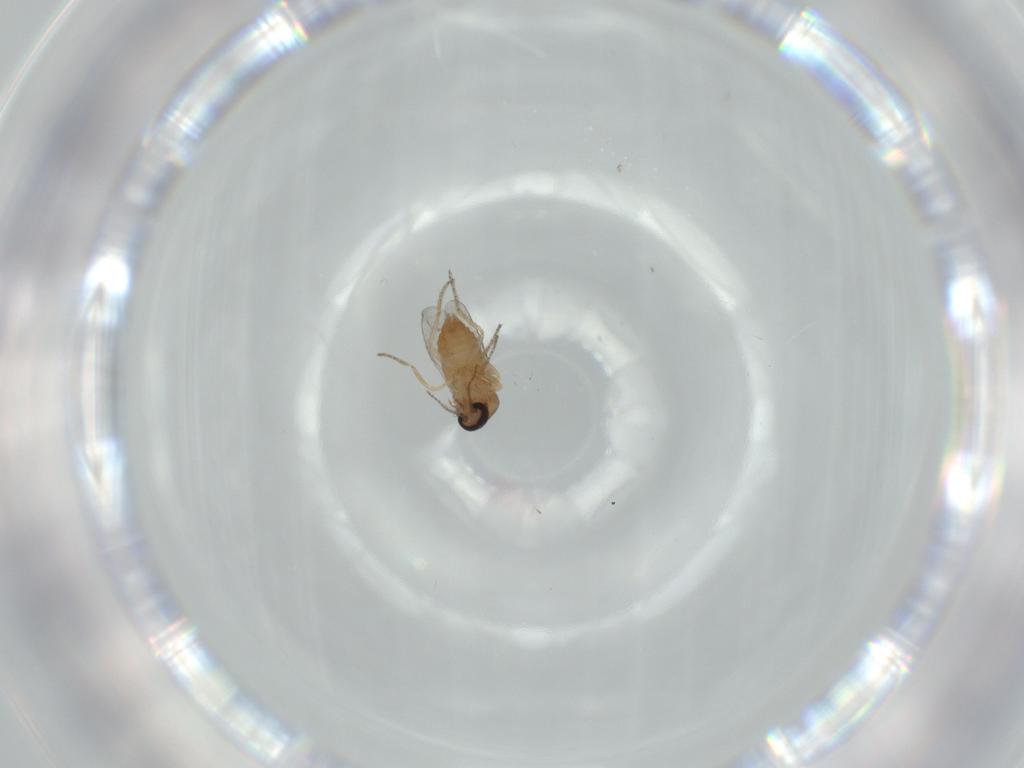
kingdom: Animalia
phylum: Arthropoda
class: Insecta
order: Diptera
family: Ceratopogonidae
